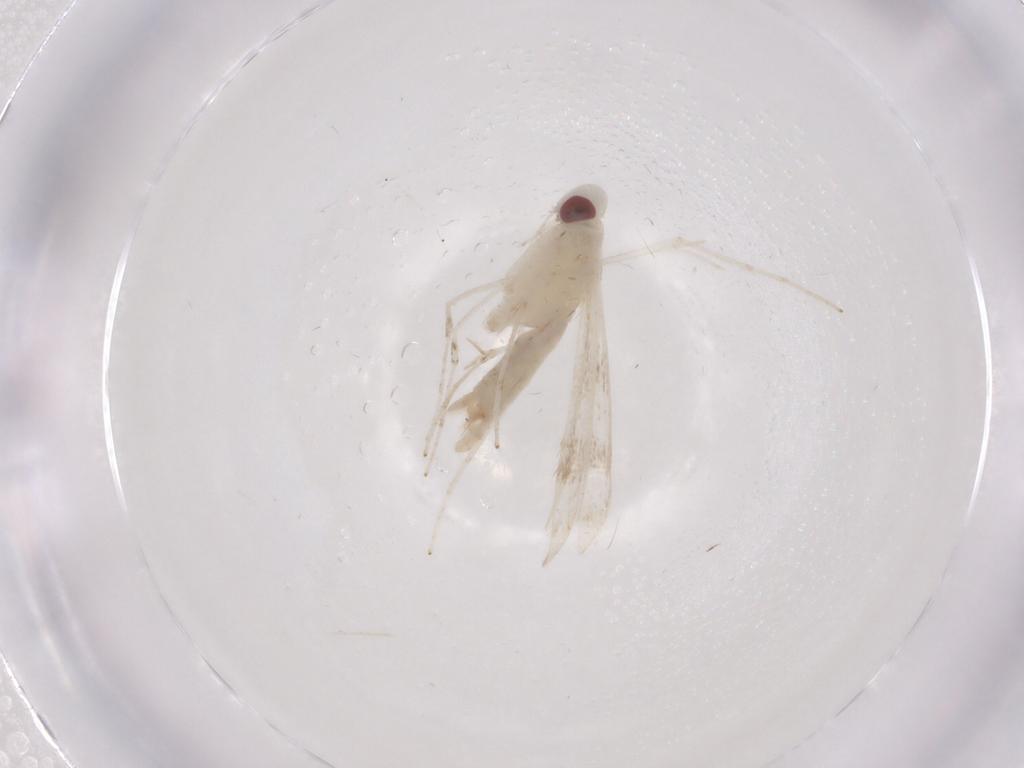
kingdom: Animalia
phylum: Arthropoda
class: Insecta
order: Lepidoptera
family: Gracillariidae
